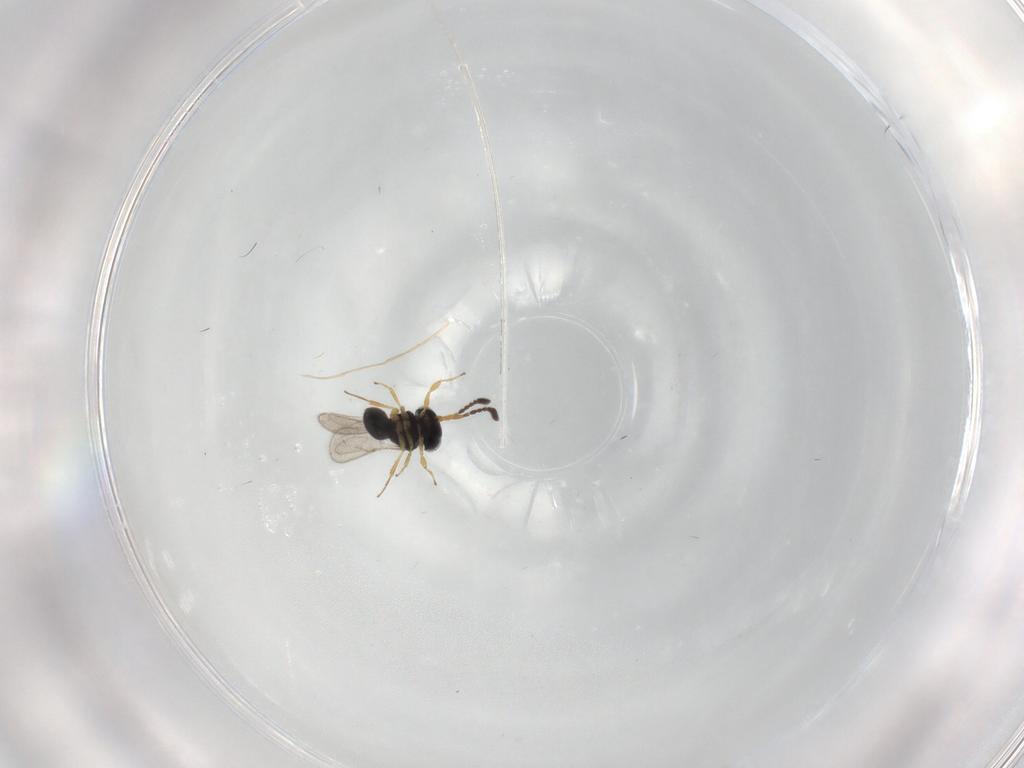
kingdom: Animalia
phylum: Arthropoda
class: Insecta
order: Hymenoptera
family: Scelionidae
